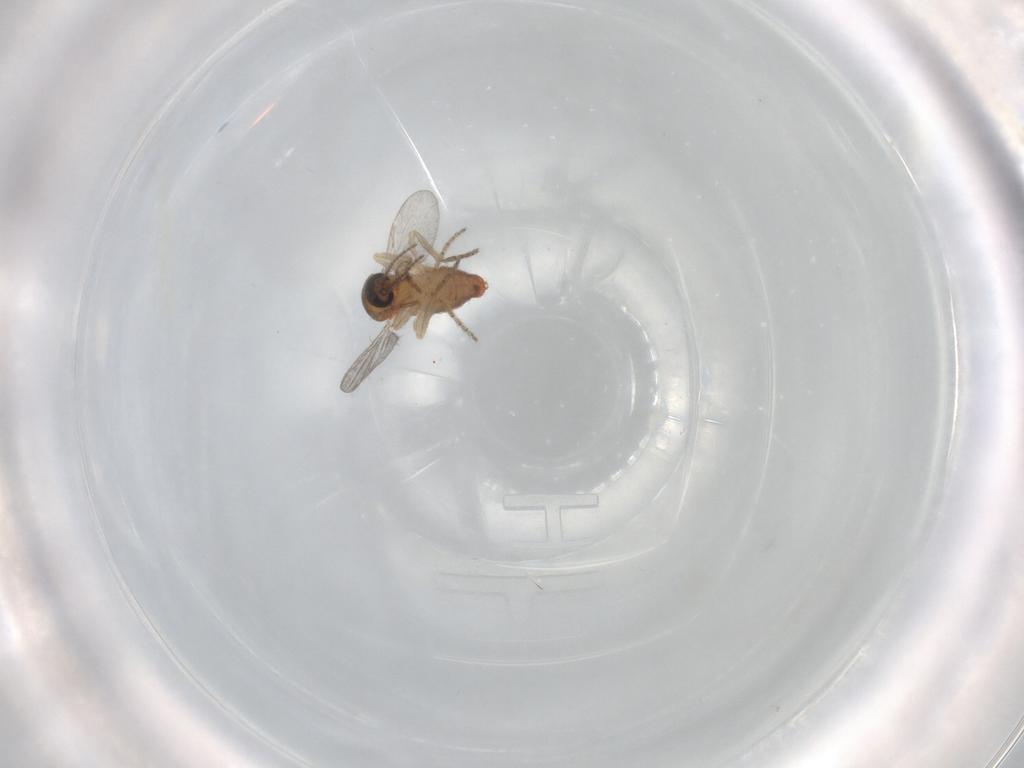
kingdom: Animalia
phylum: Arthropoda
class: Insecta
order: Diptera
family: Ceratopogonidae
